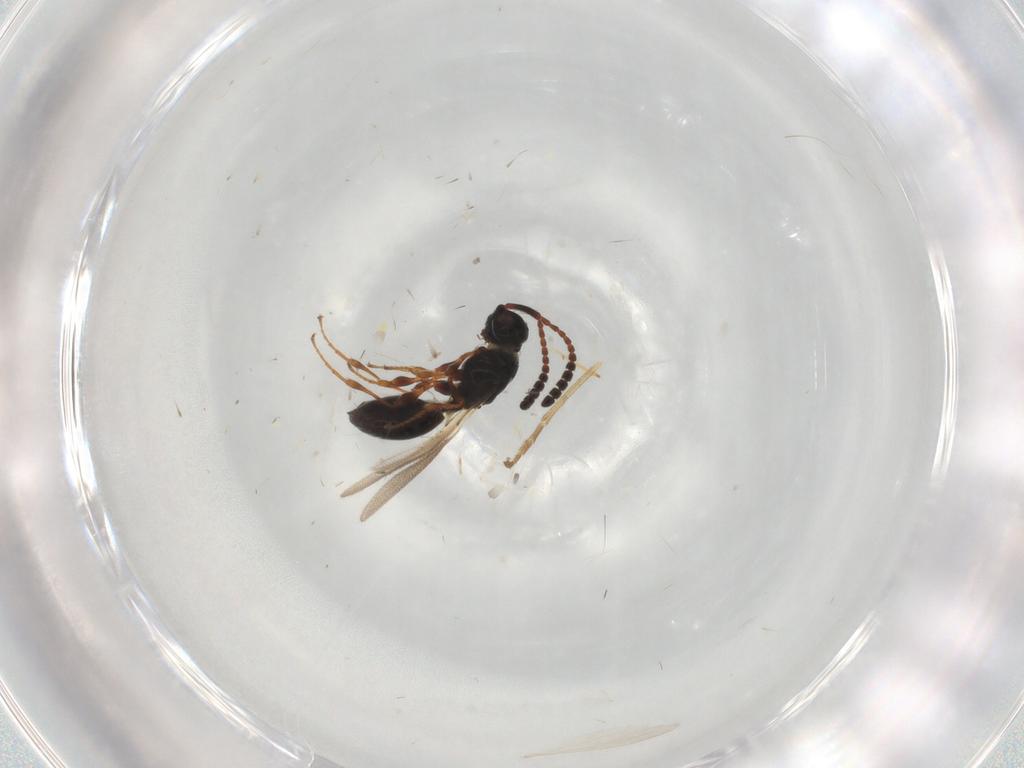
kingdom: Animalia
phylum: Arthropoda
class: Insecta
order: Hymenoptera
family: Diapriidae
